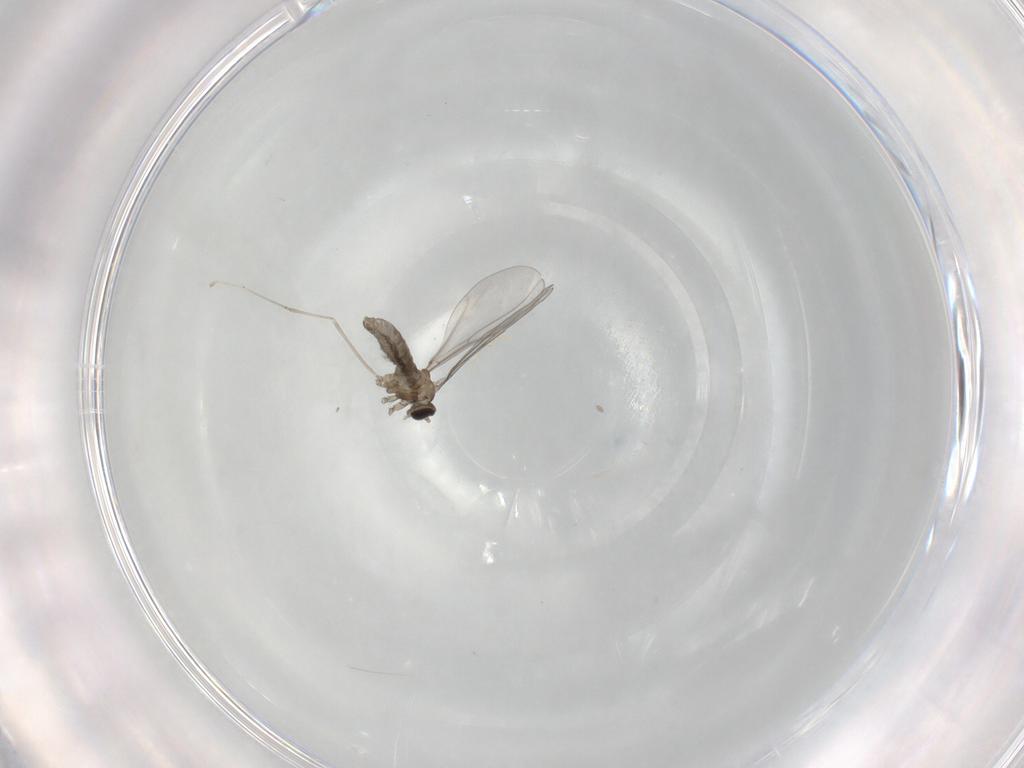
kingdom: Animalia
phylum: Arthropoda
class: Insecta
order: Diptera
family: Cecidomyiidae
